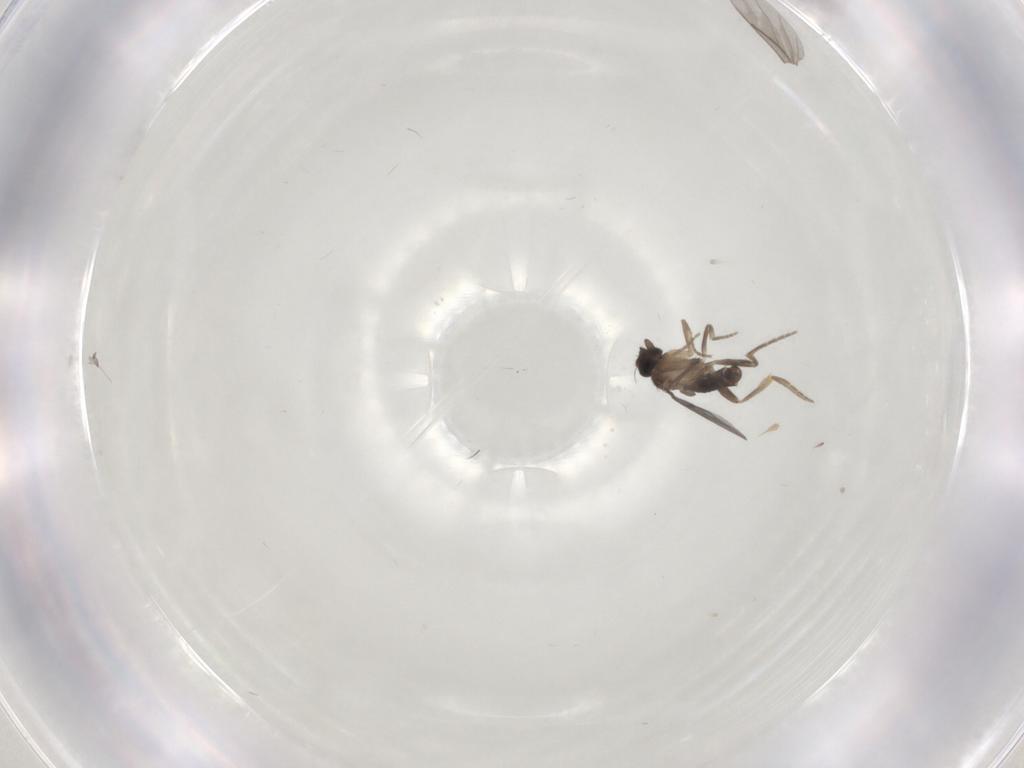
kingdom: Animalia
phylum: Arthropoda
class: Insecta
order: Diptera
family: Psychodidae
